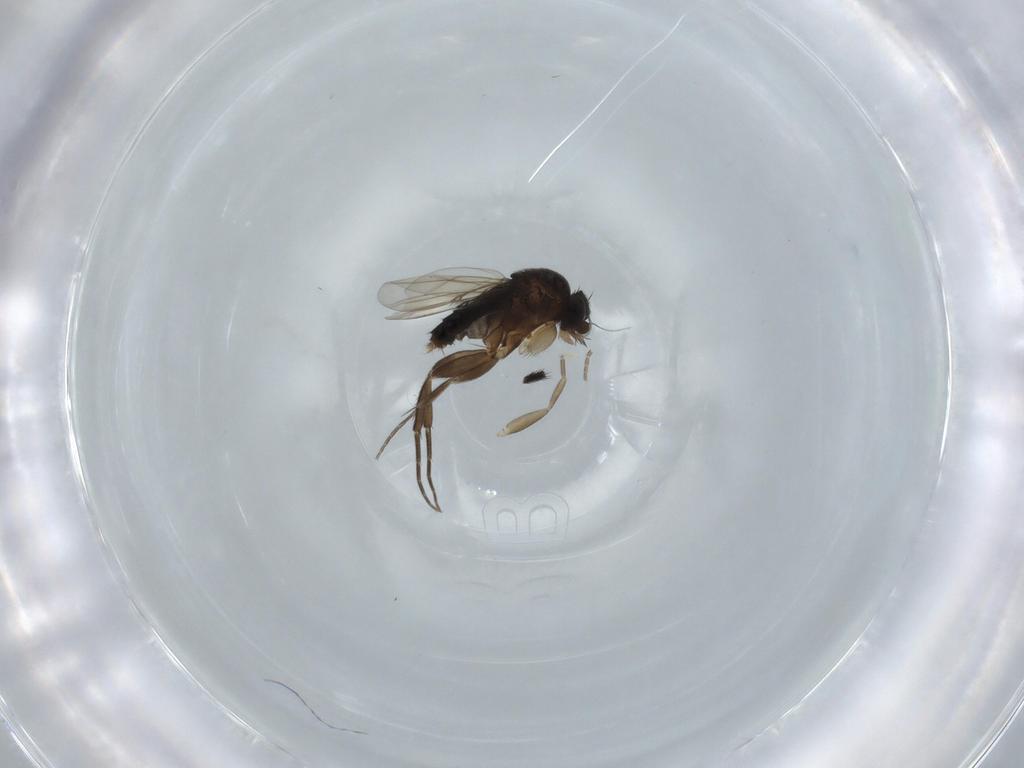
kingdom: Animalia
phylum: Arthropoda
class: Insecta
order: Diptera
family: Phoridae
